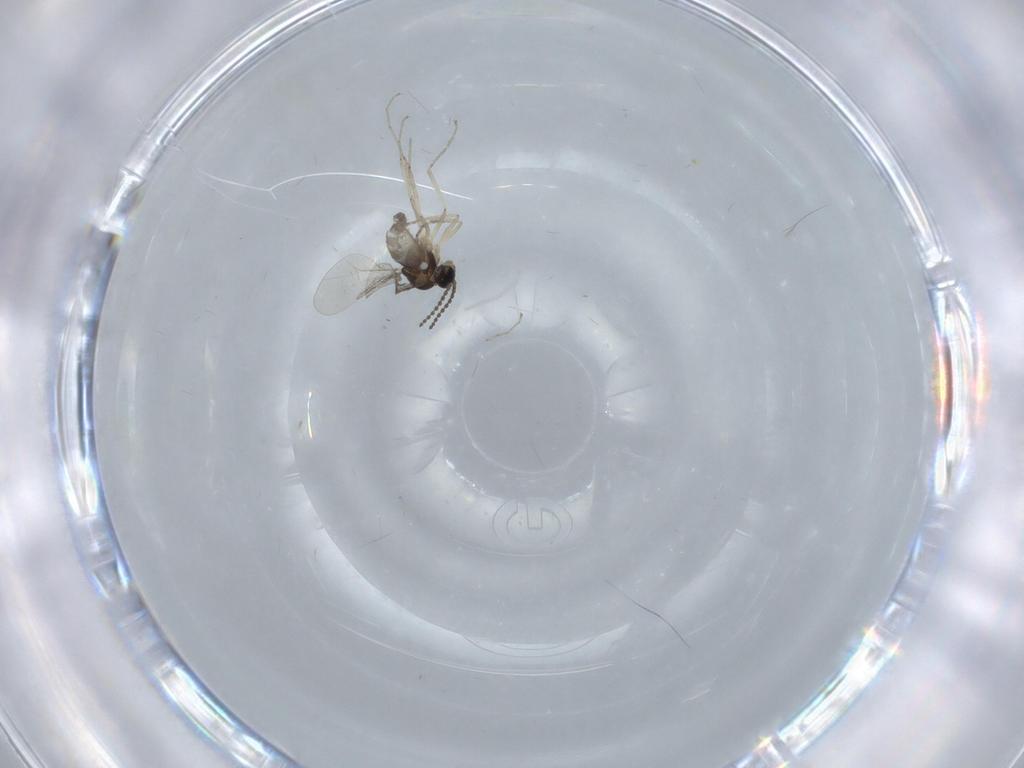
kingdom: Animalia
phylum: Arthropoda
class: Insecta
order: Diptera
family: Cecidomyiidae
